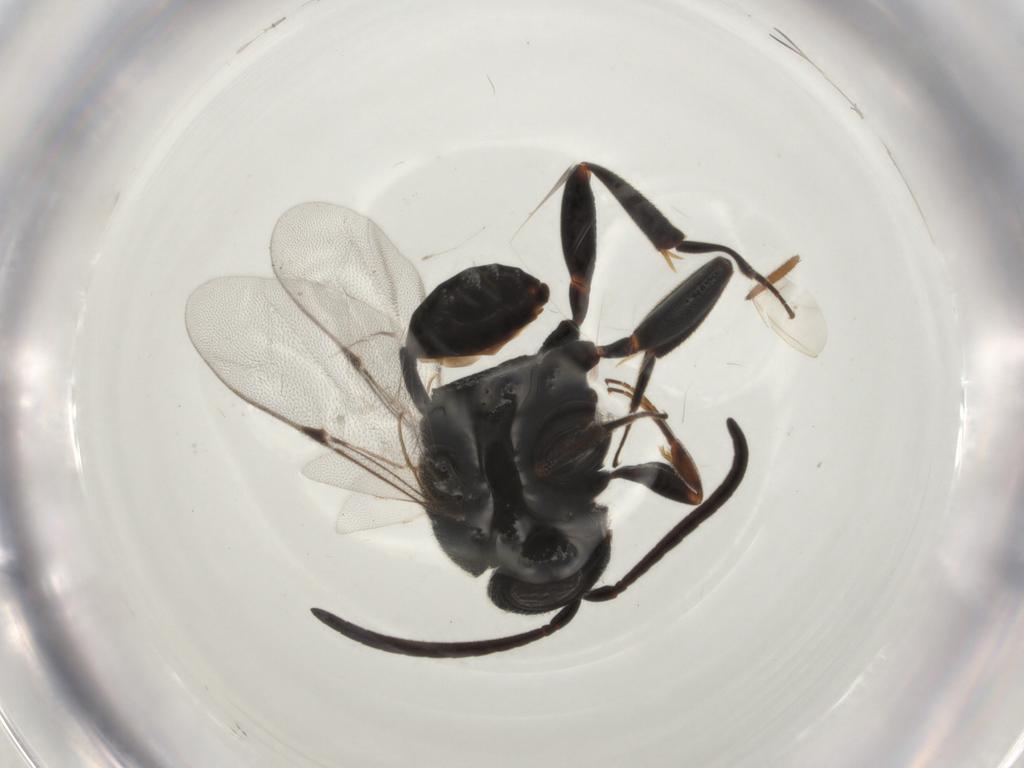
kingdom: Animalia
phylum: Arthropoda
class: Insecta
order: Hymenoptera
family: Evaniidae
